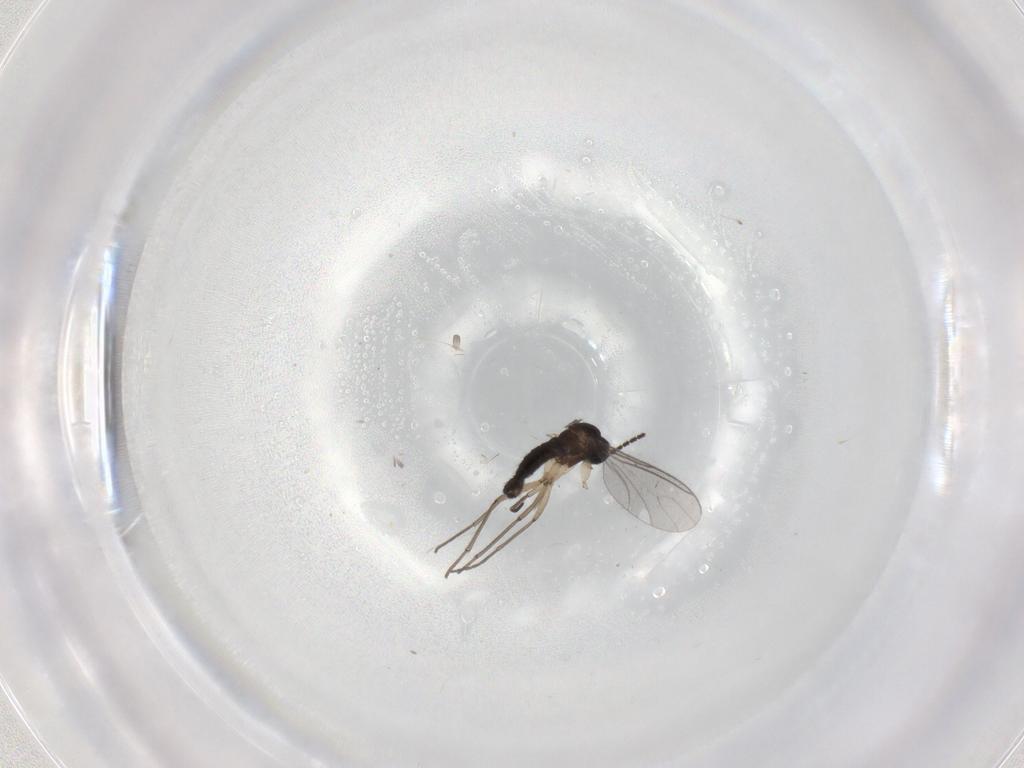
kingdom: Animalia
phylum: Arthropoda
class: Insecta
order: Diptera
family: Sciaridae
